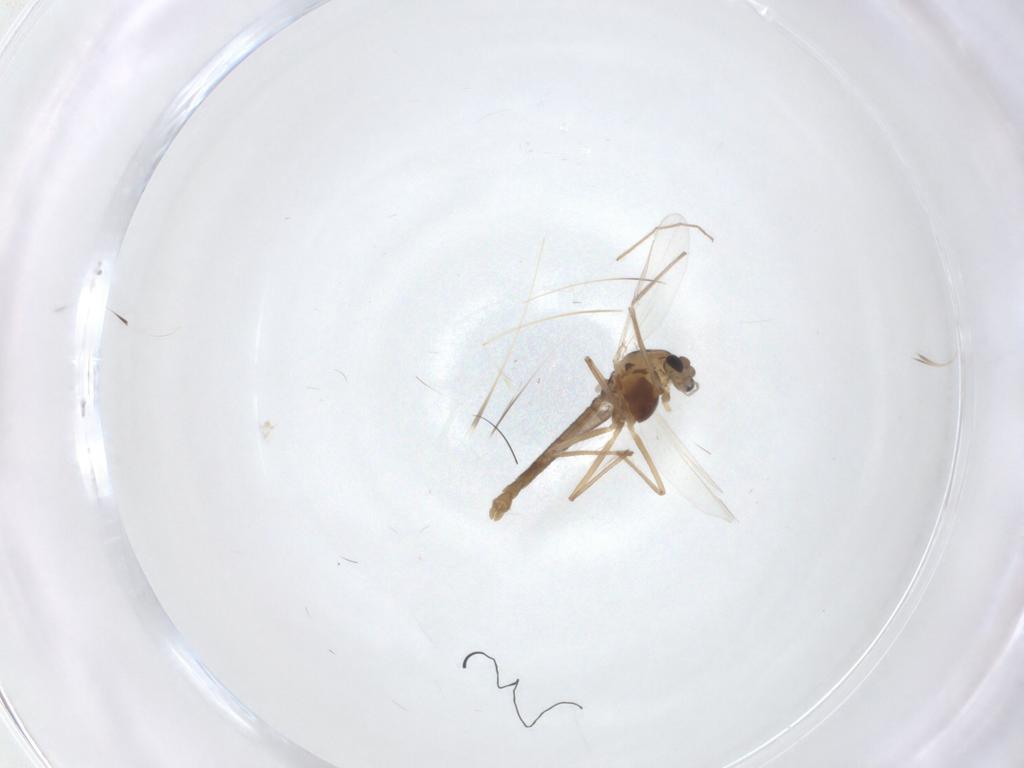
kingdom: Animalia
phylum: Arthropoda
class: Insecta
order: Diptera
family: Chironomidae
